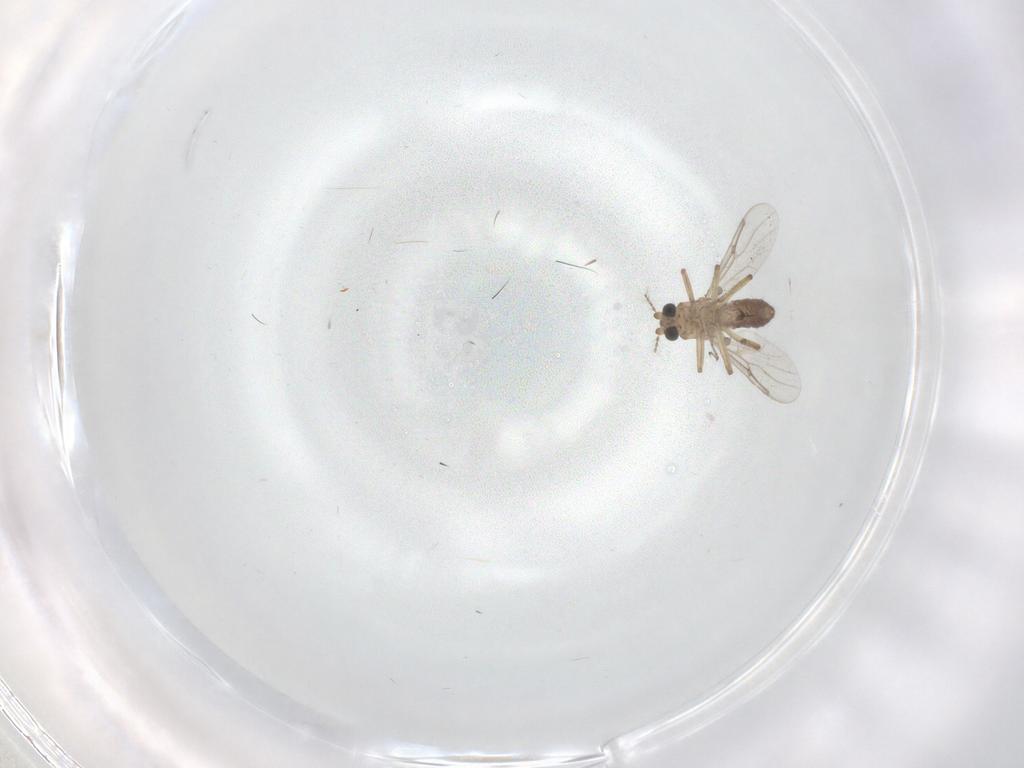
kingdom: Animalia
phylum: Arthropoda
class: Insecta
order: Diptera
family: Ceratopogonidae
